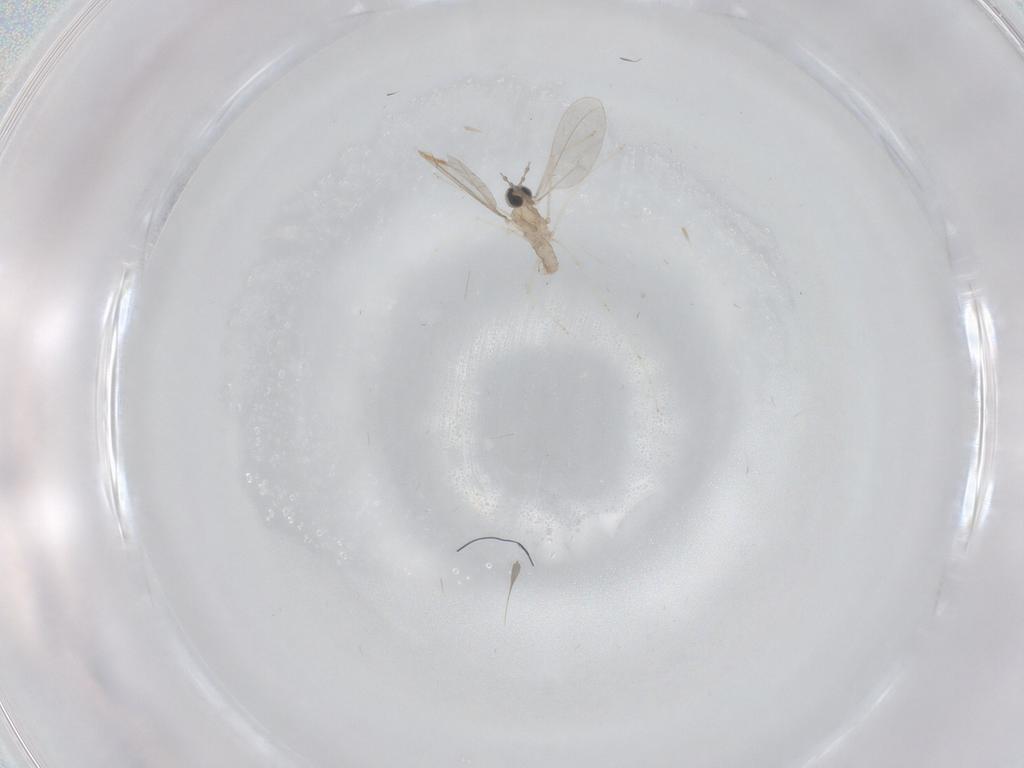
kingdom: Animalia
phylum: Arthropoda
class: Insecta
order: Diptera
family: Chironomidae
